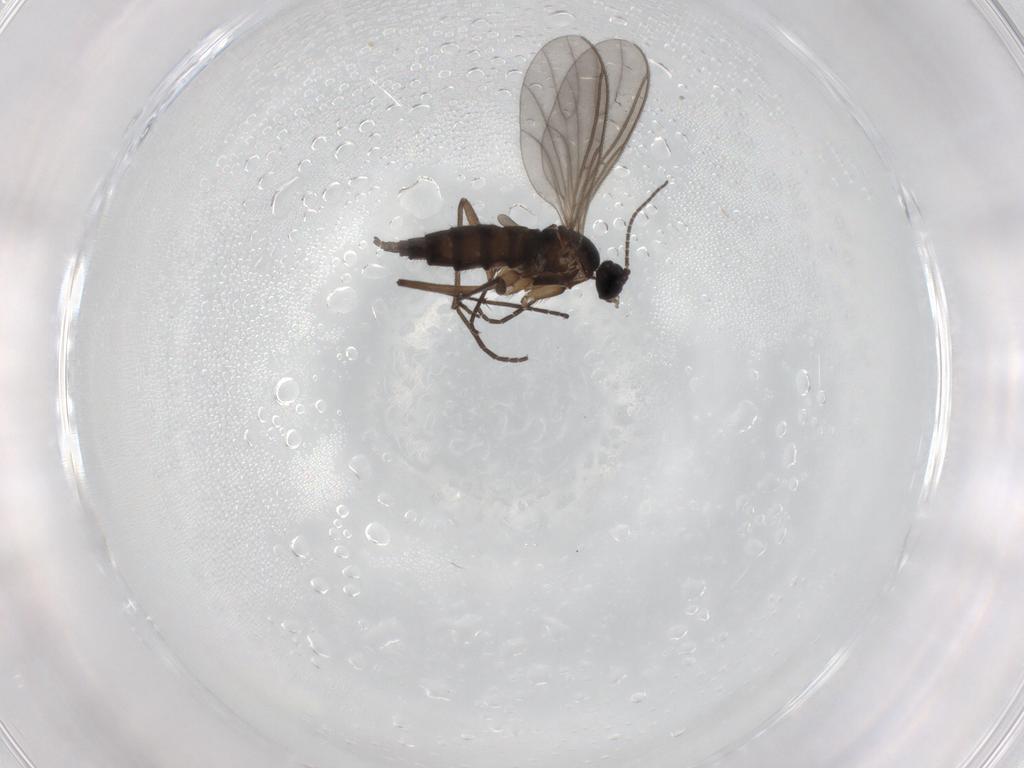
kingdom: Animalia
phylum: Arthropoda
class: Insecta
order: Diptera
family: Sciaridae
